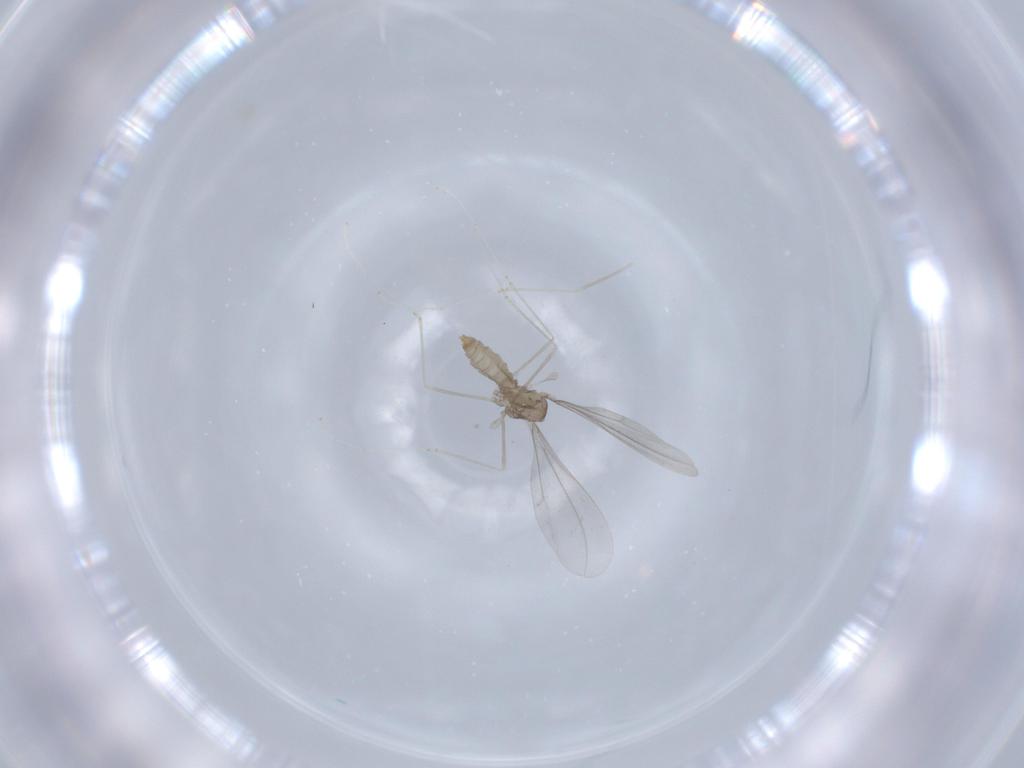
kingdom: Animalia
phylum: Arthropoda
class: Insecta
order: Diptera
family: Cecidomyiidae
